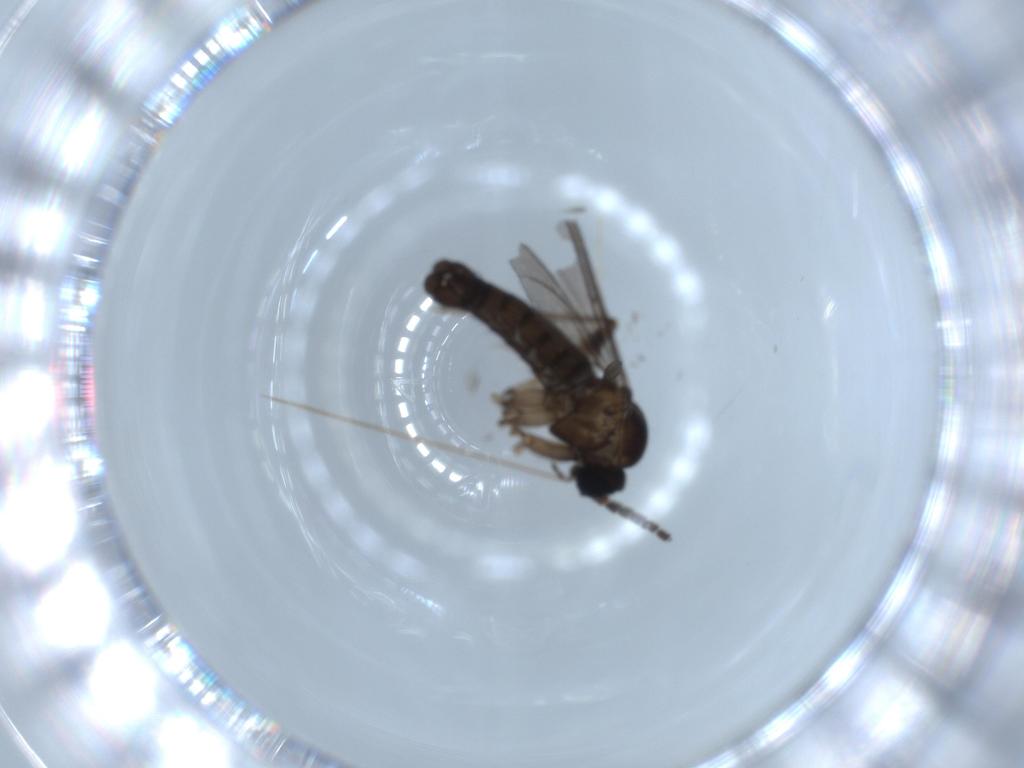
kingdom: Animalia
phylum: Arthropoda
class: Insecta
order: Diptera
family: Sciaridae
